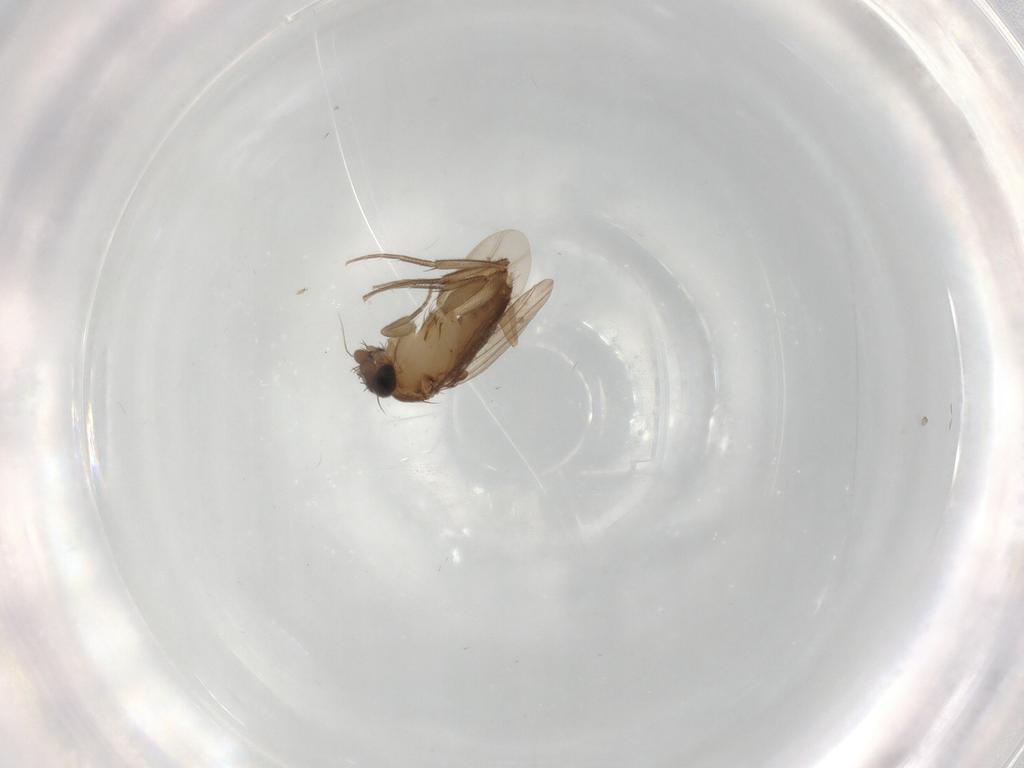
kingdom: Animalia
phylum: Arthropoda
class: Insecta
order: Diptera
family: Phoridae
